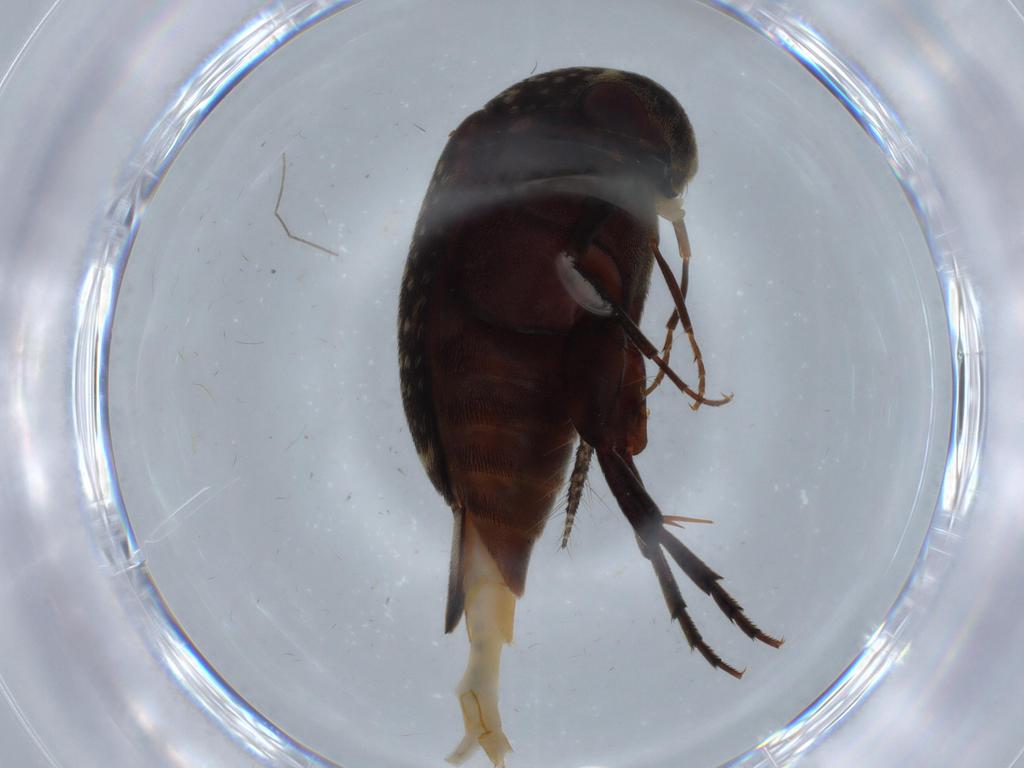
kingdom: Animalia
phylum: Arthropoda
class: Insecta
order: Coleoptera
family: Mordellidae
